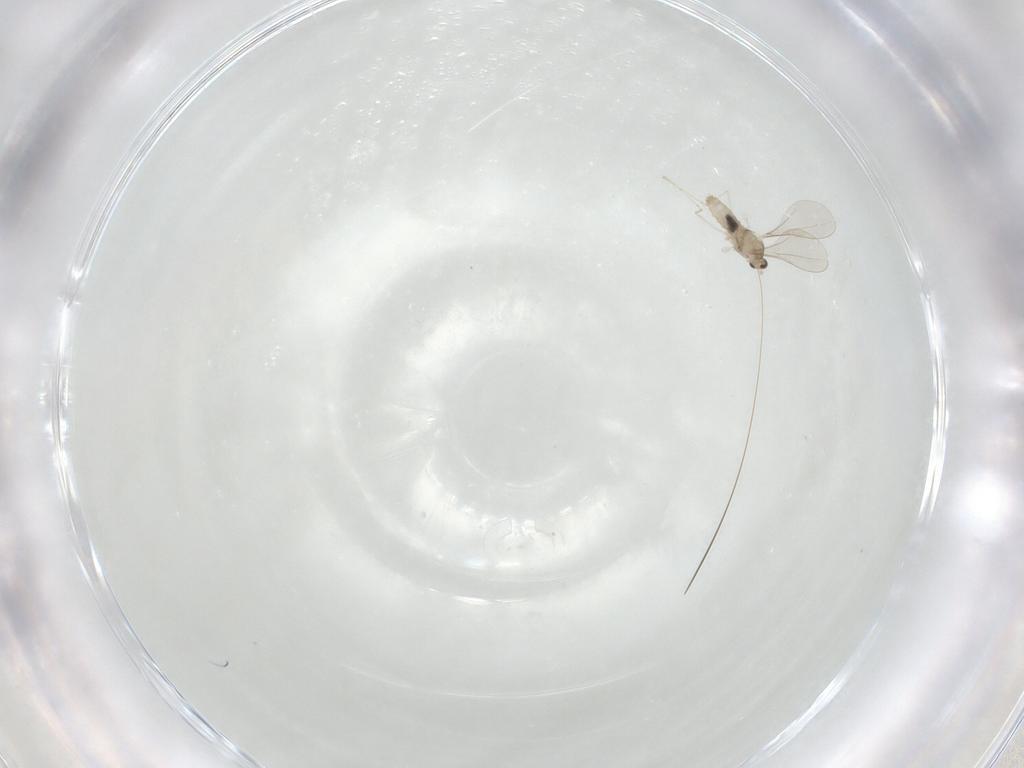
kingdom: Animalia
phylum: Arthropoda
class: Insecta
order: Diptera
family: Cecidomyiidae
